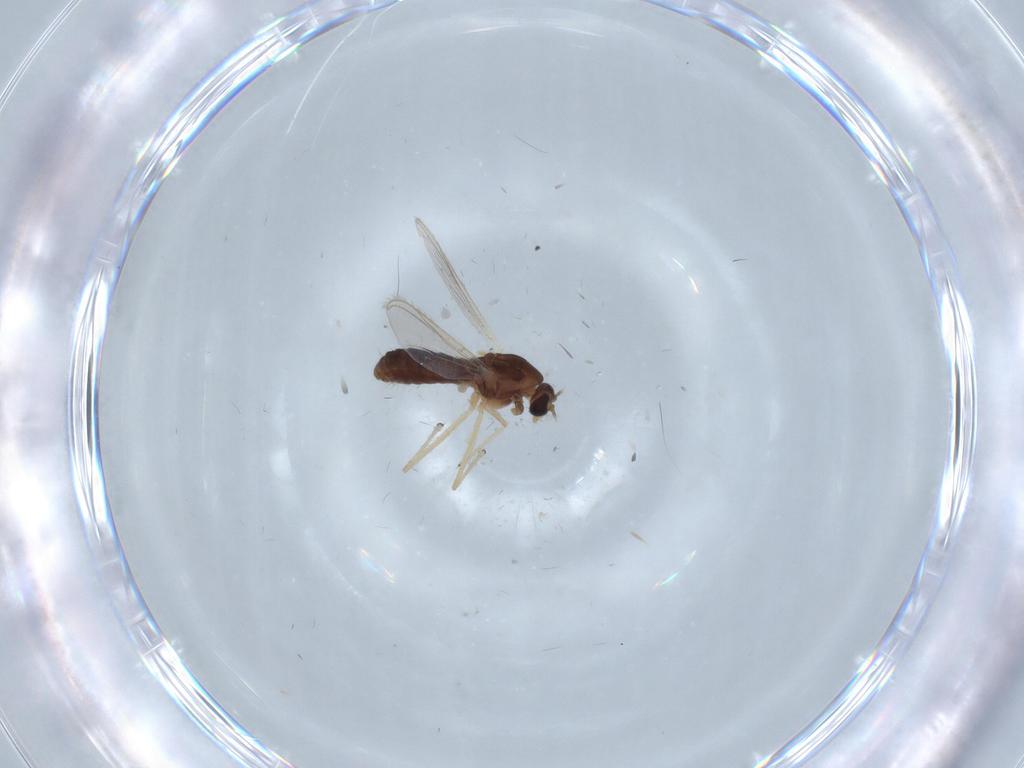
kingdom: Animalia
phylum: Arthropoda
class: Insecta
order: Diptera
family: Chironomidae
